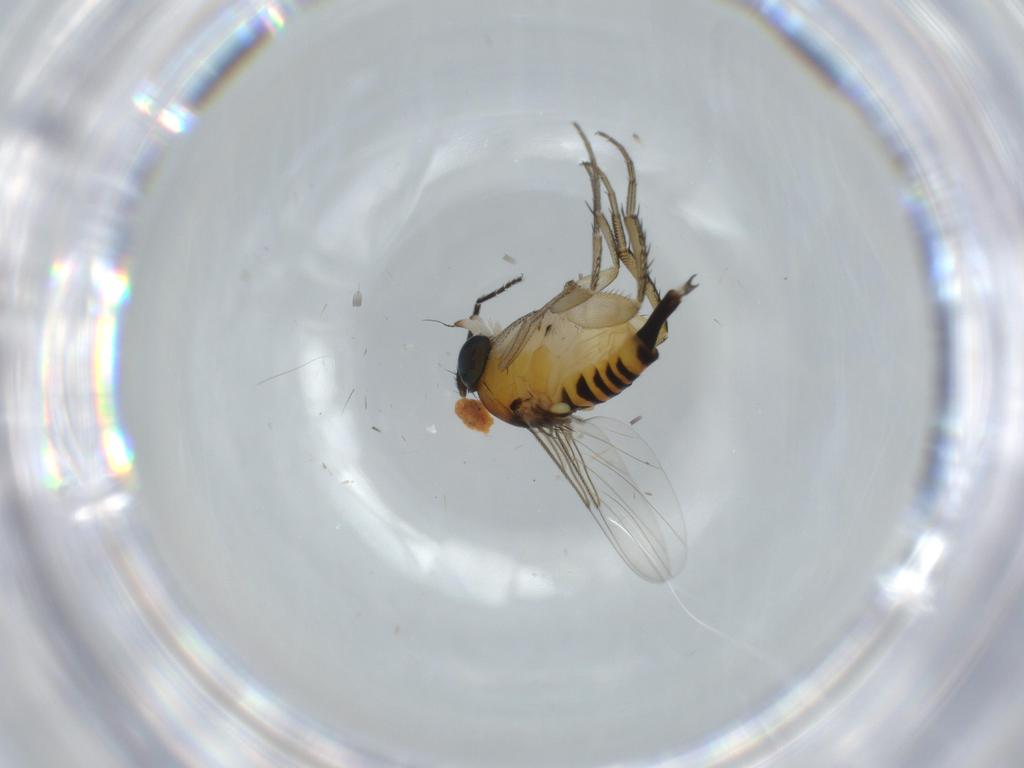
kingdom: Animalia
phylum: Arthropoda
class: Insecta
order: Diptera
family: Phoridae
